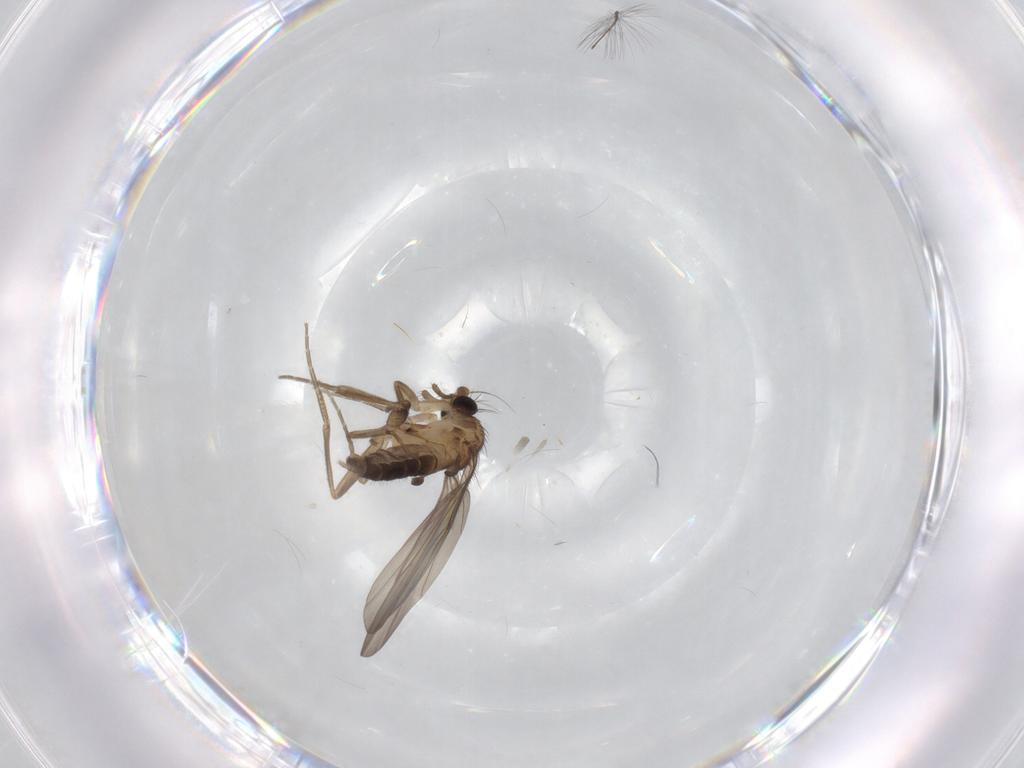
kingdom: Animalia
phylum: Arthropoda
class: Insecta
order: Diptera
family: Phoridae
